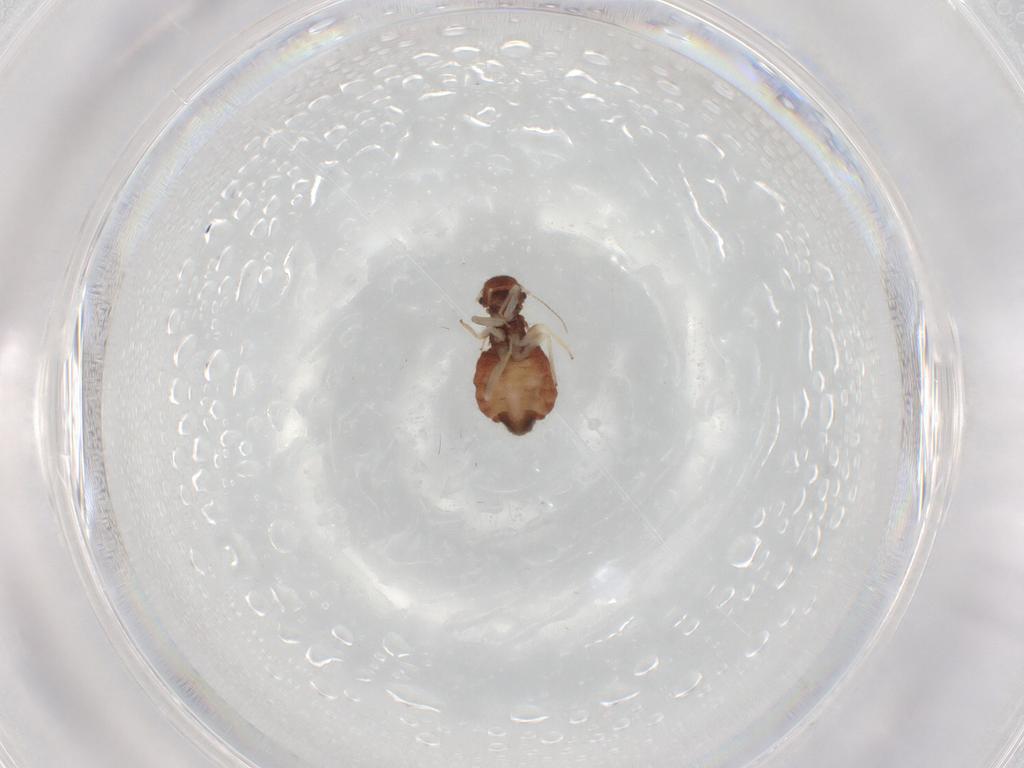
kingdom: Animalia
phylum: Arthropoda
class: Insecta
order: Psocodea
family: Archipsocidae
